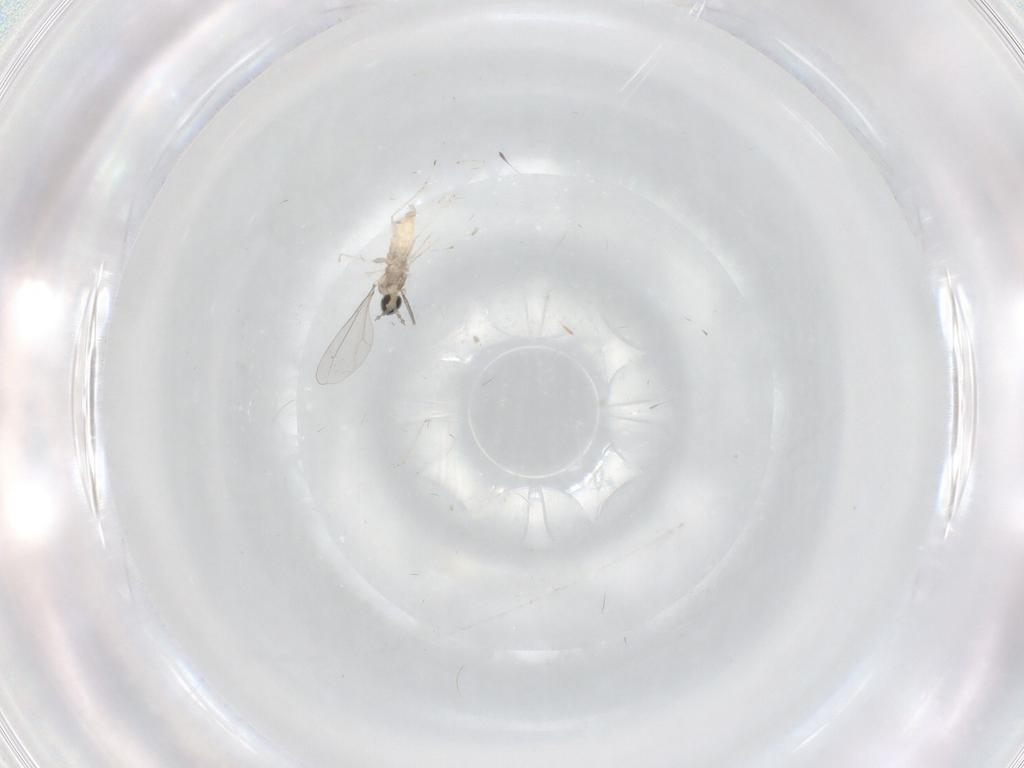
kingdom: Animalia
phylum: Arthropoda
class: Insecta
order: Diptera
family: Cecidomyiidae
